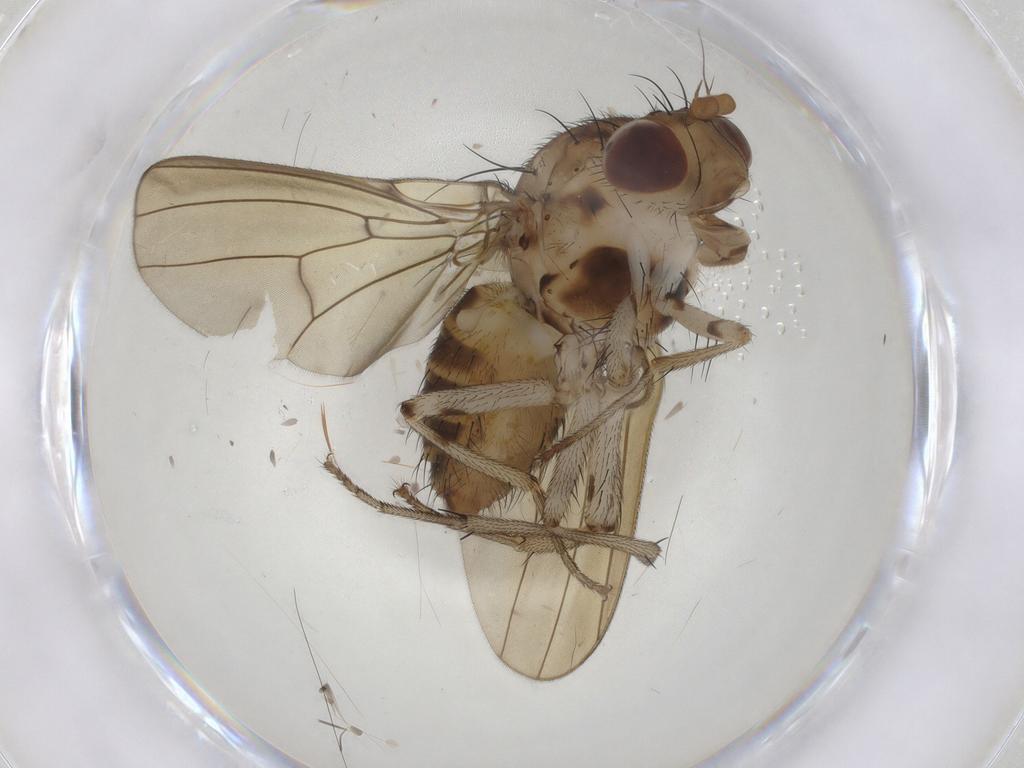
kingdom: Animalia
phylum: Arthropoda
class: Insecta
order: Diptera
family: Lauxaniidae
